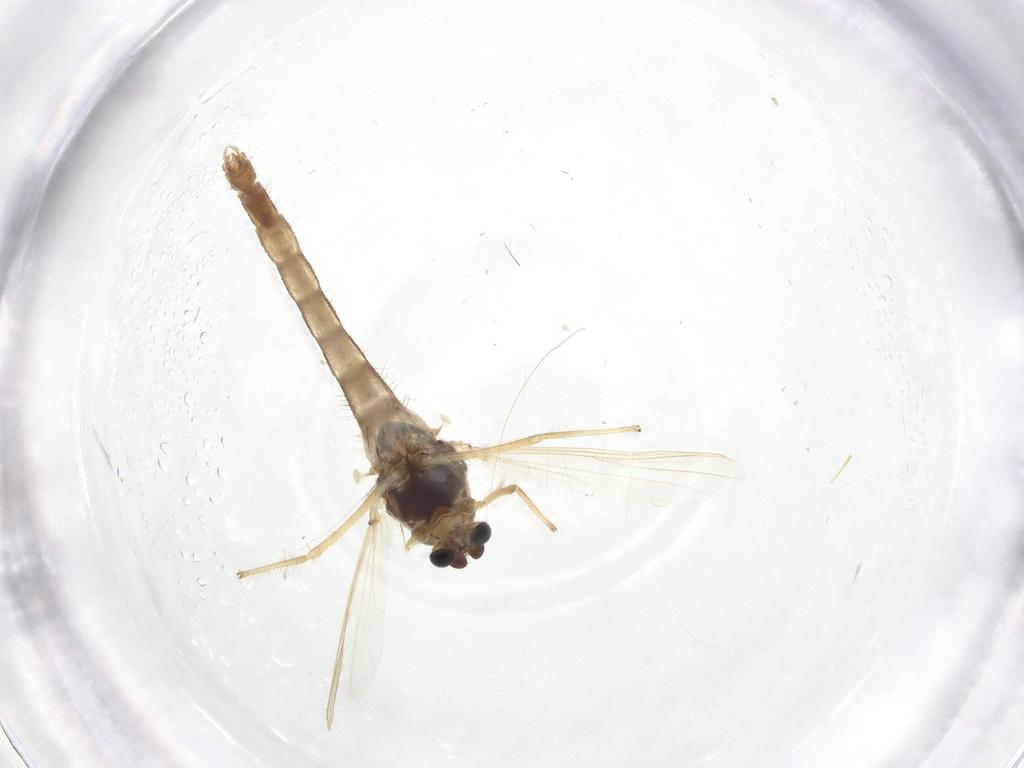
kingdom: Animalia
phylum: Arthropoda
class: Insecta
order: Diptera
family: Chironomidae
